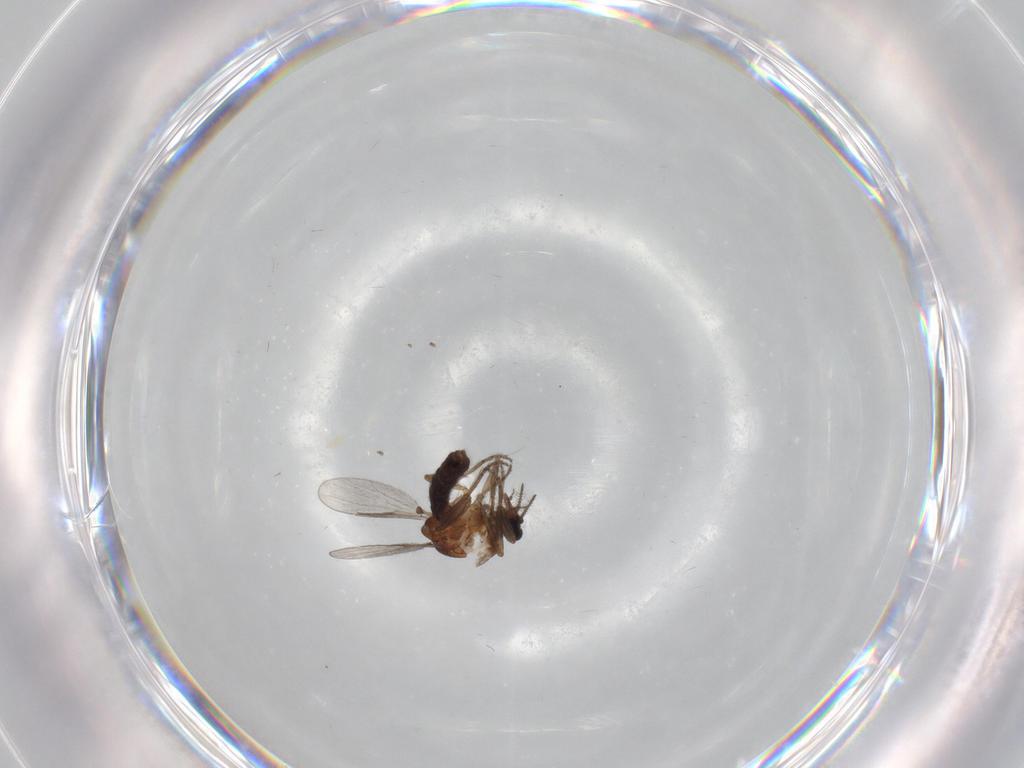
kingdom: Animalia
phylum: Arthropoda
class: Insecta
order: Diptera
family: Ceratopogonidae
